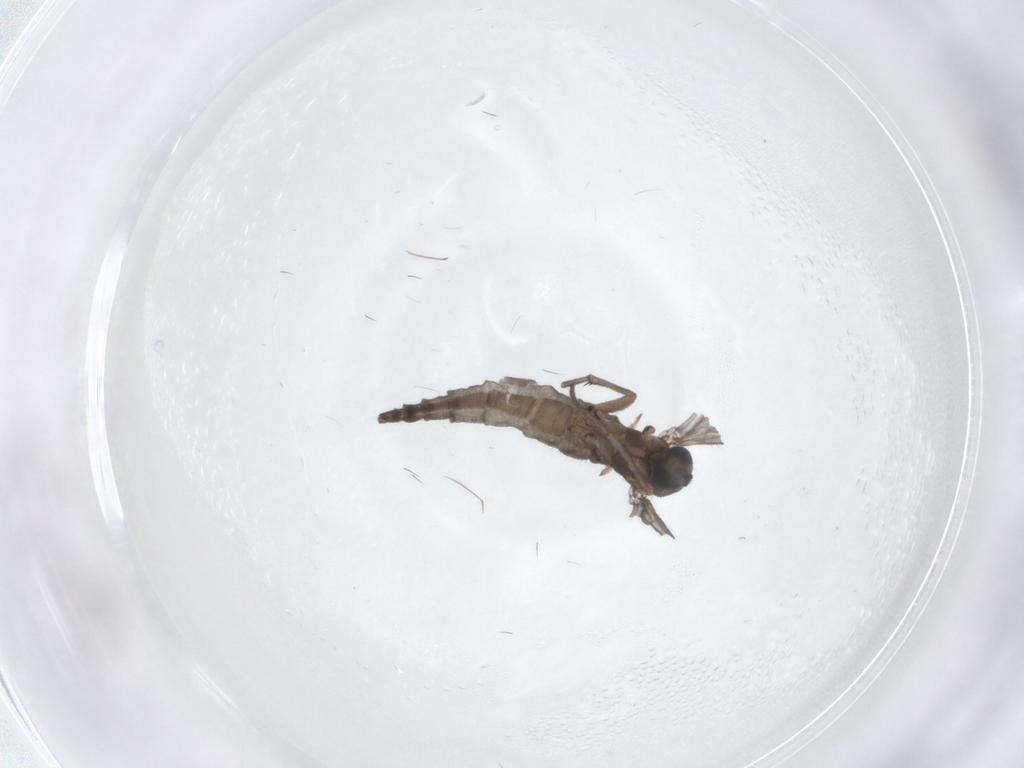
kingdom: Animalia
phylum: Arthropoda
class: Insecta
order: Diptera
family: Sciaridae
